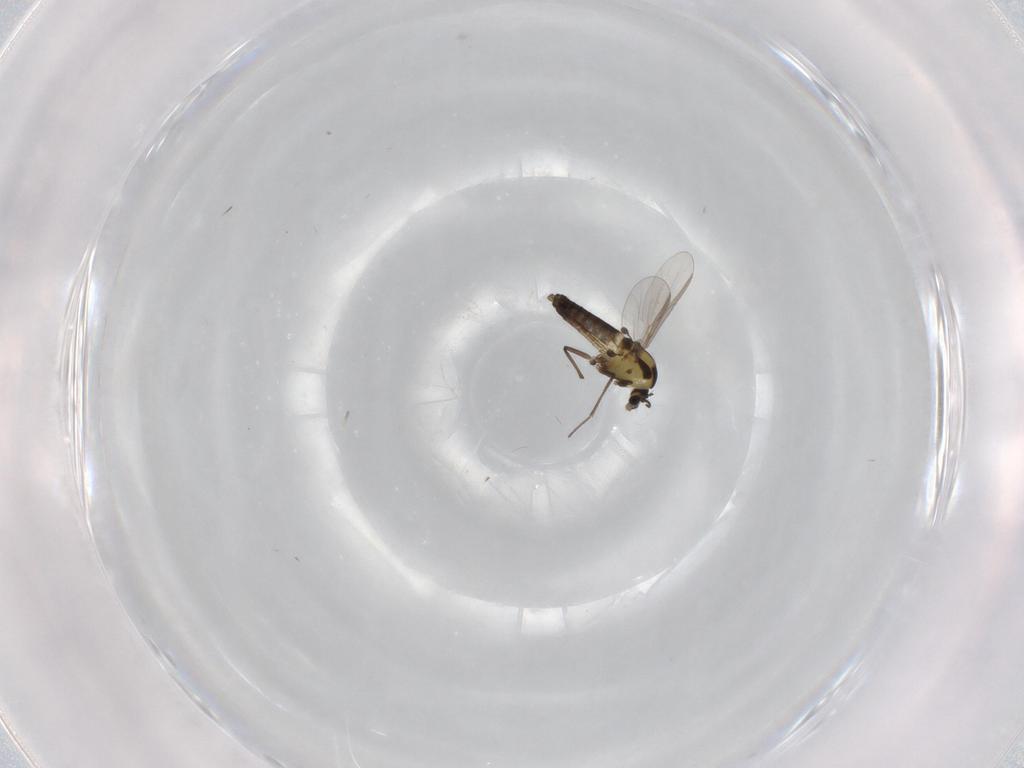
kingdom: Animalia
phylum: Arthropoda
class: Insecta
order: Diptera
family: Chironomidae
